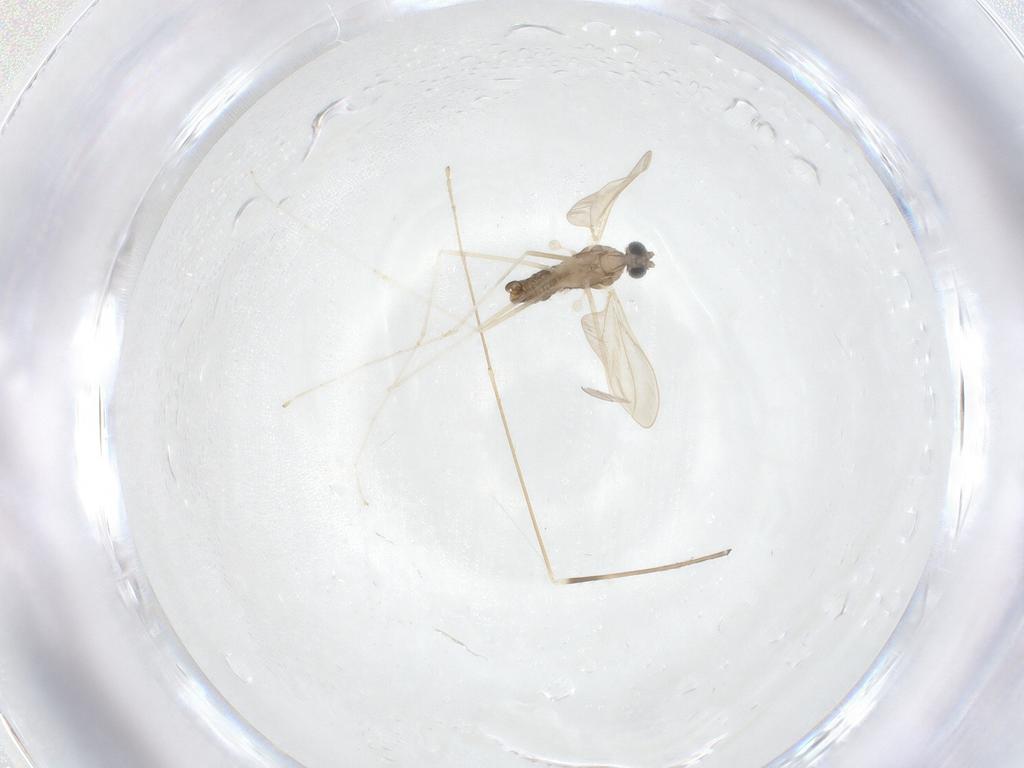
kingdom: Animalia
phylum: Arthropoda
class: Insecta
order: Diptera
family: Cecidomyiidae
